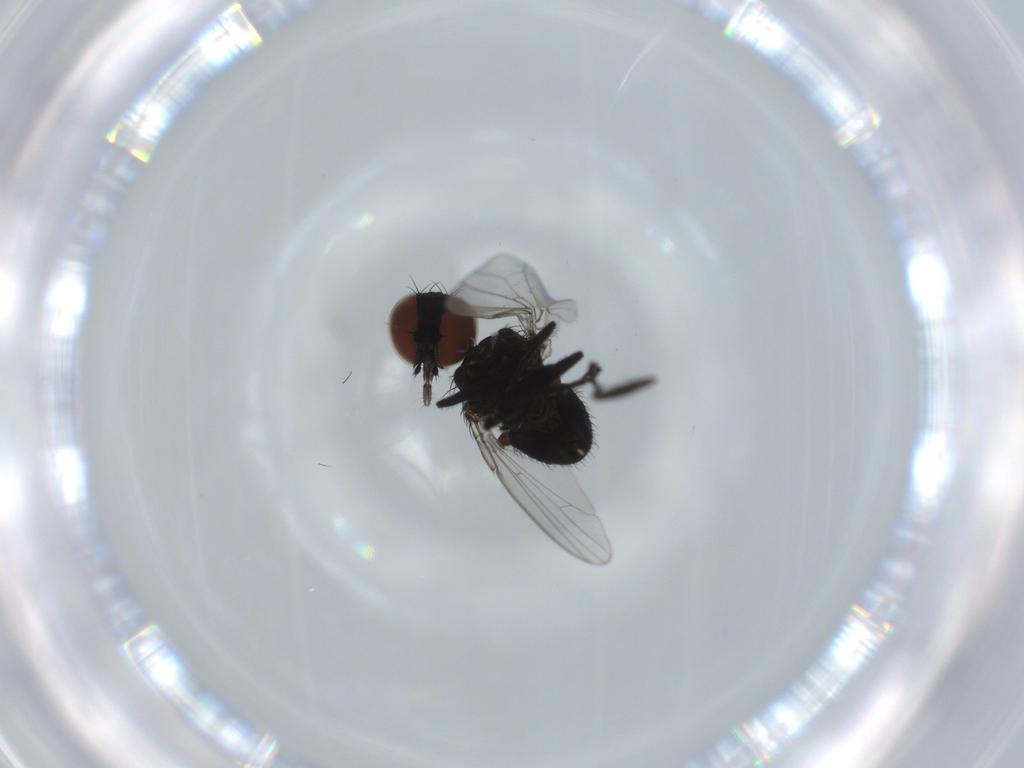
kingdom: Animalia
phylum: Arthropoda
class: Insecta
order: Diptera
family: Milichiidae
